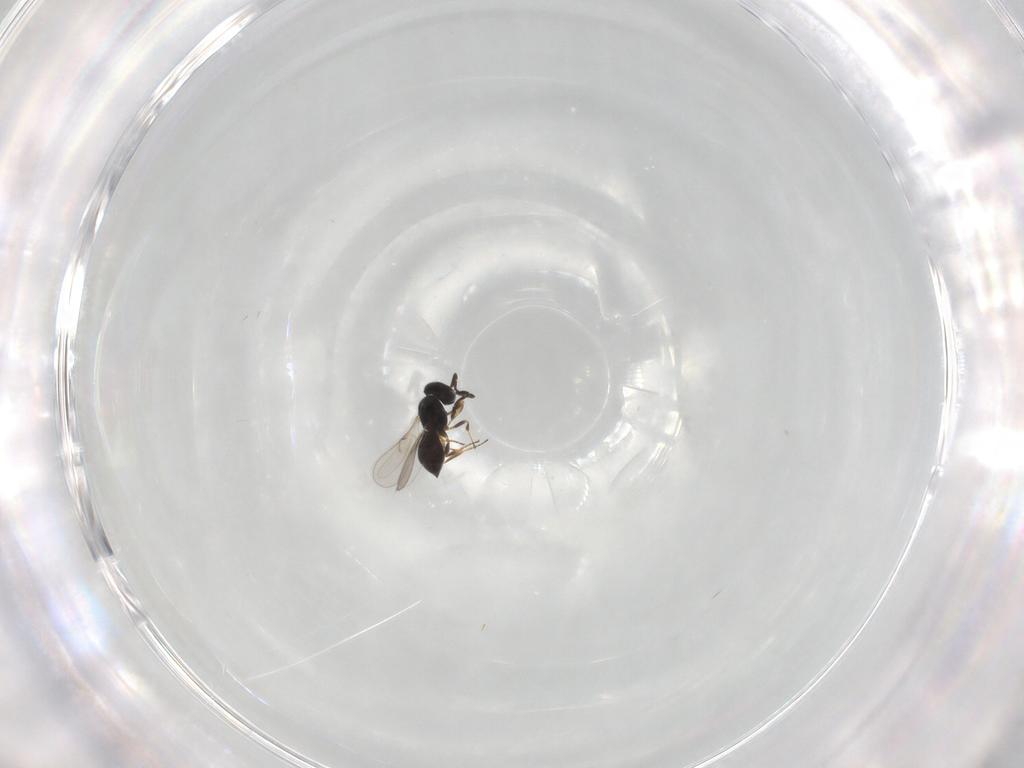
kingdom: Animalia
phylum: Arthropoda
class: Insecta
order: Hymenoptera
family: Scelionidae
